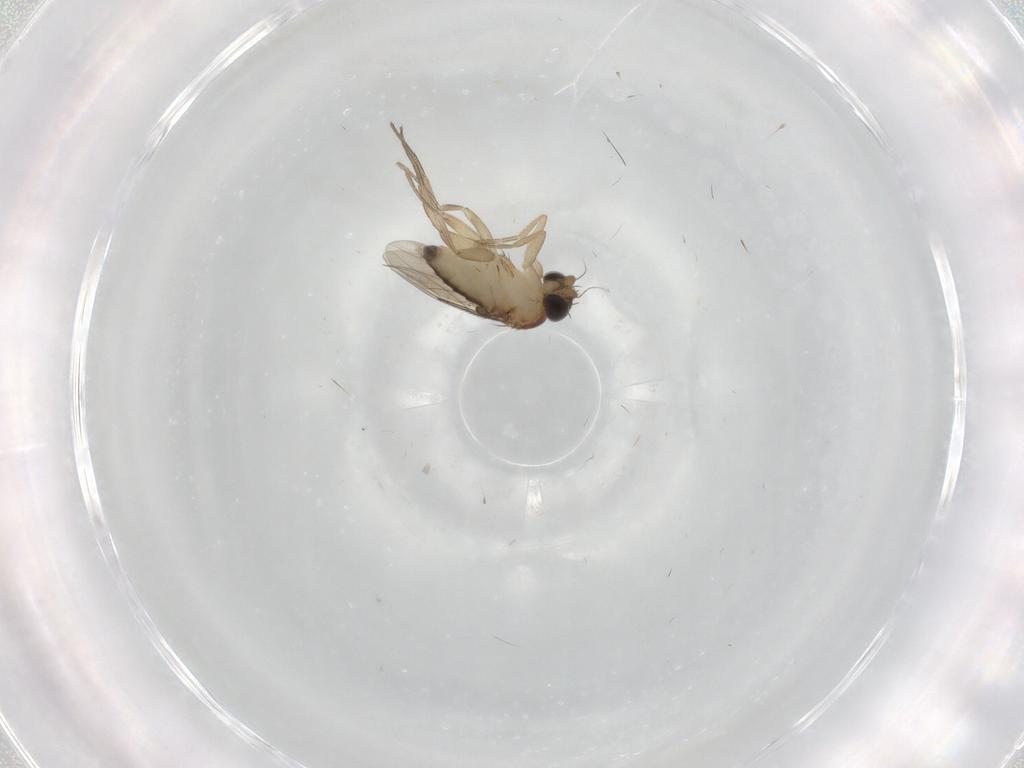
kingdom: Animalia
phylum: Arthropoda
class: Insecta
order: Diptera
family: Phoridae
